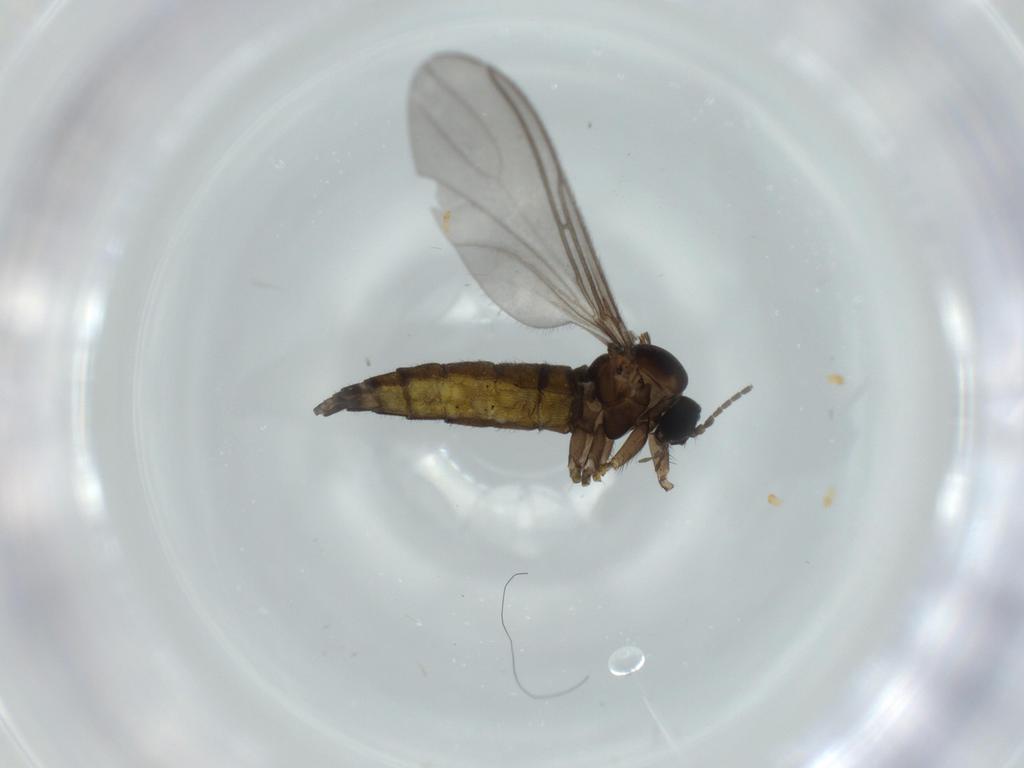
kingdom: Animalia
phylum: Arthropoda
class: Insecta
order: Diptera
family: Sciaridae
